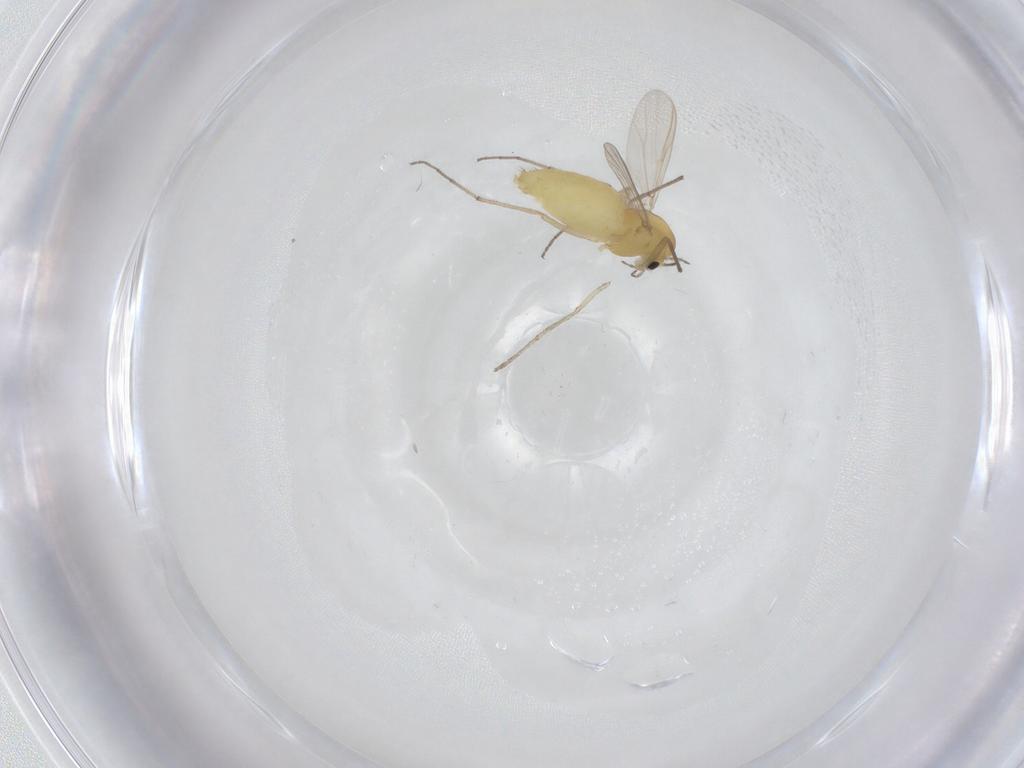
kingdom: Animalia
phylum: Arthropoda
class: Insecta
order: Diptera
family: Chironomidae
